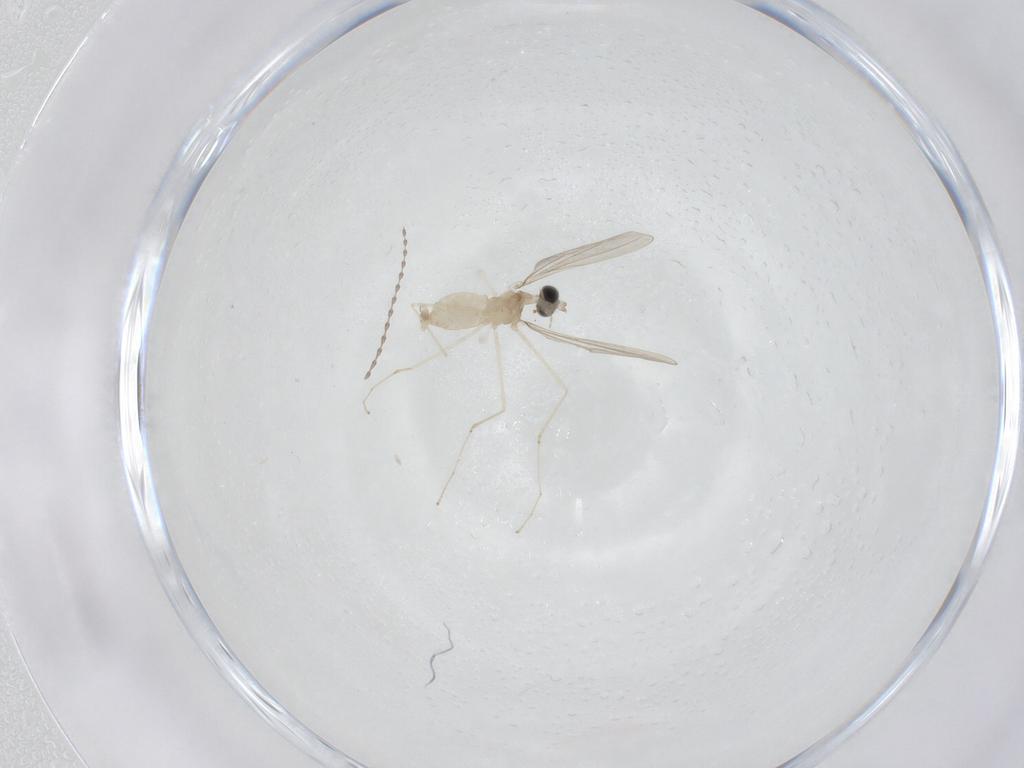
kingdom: Animalia
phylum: Arthropoda
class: Insecta
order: Diptera
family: Cecidomyiidae
